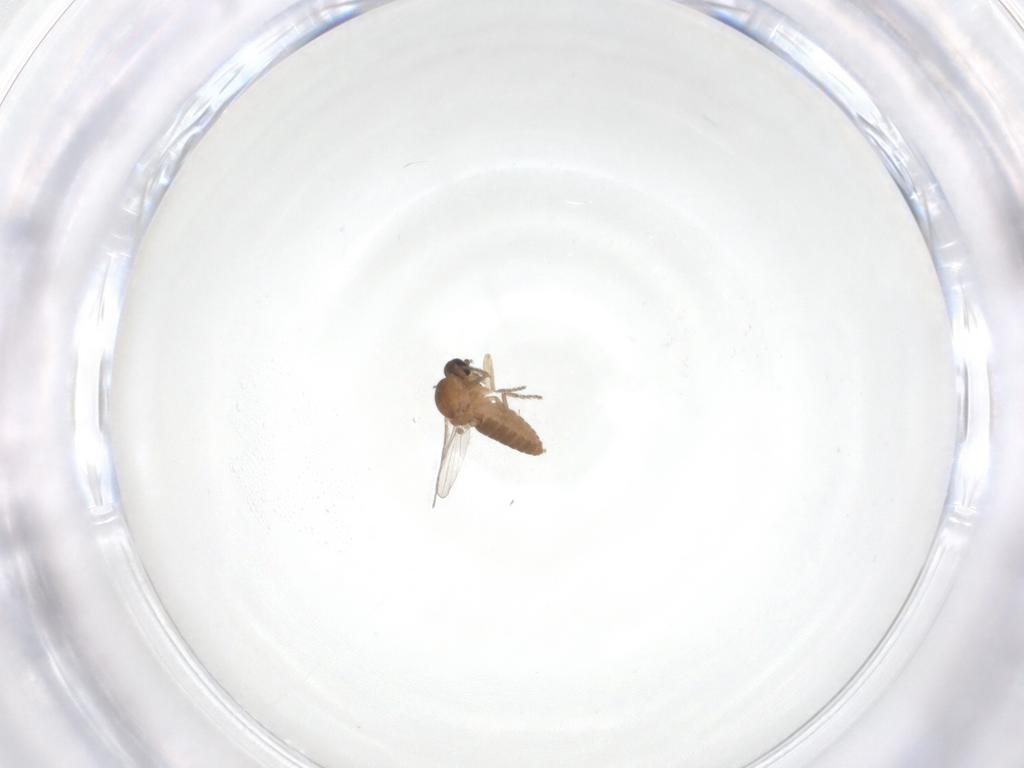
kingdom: Animalia
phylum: Arthropoda
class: Insecta
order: Diptera
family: Ceratopogonidae
